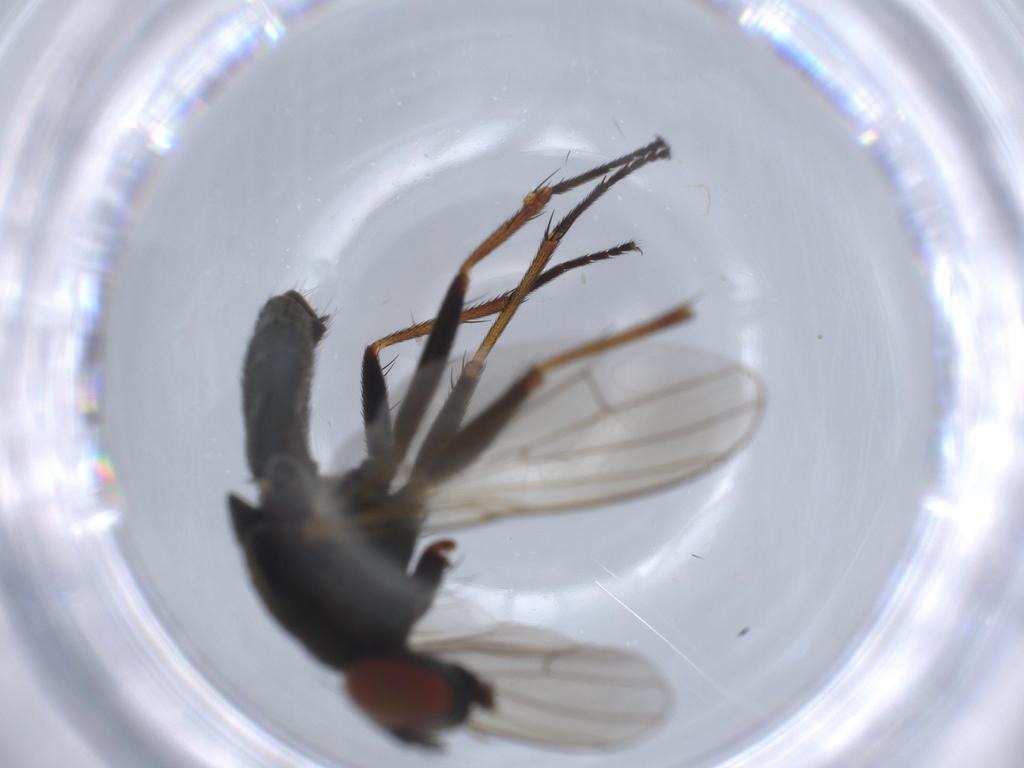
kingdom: Animalia
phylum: Arthropoda
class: Insecta
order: Diptera
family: Muscidae
